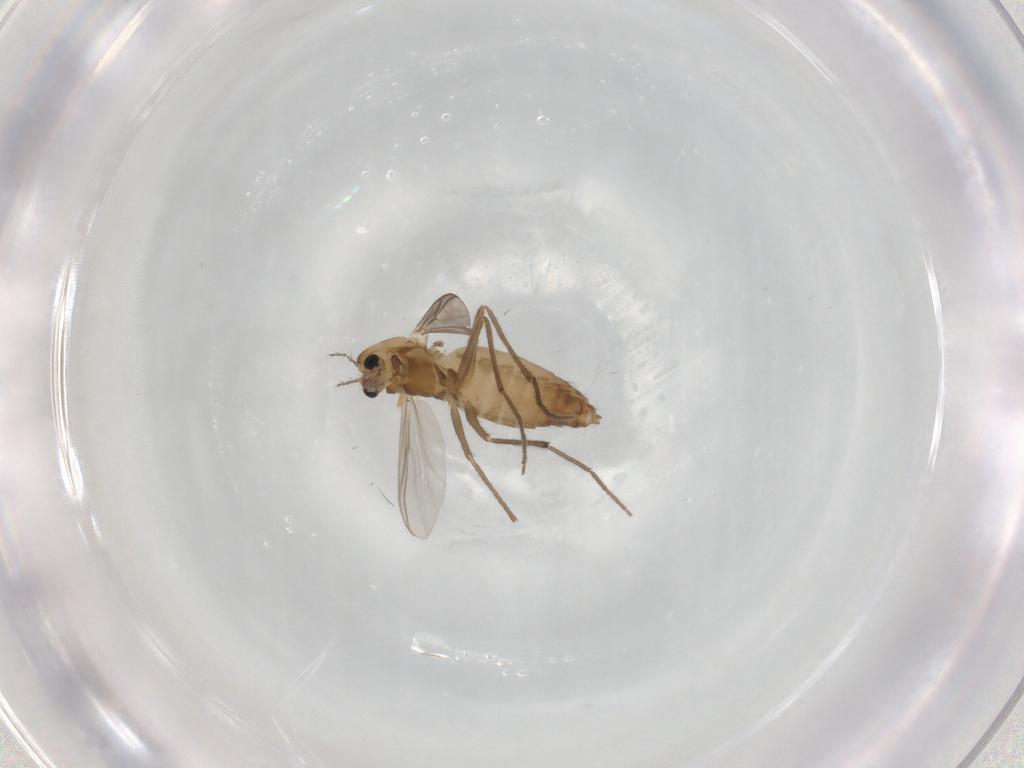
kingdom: Animalia
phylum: Arthropoda
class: Insecta
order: Diptera
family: Chironomidae
